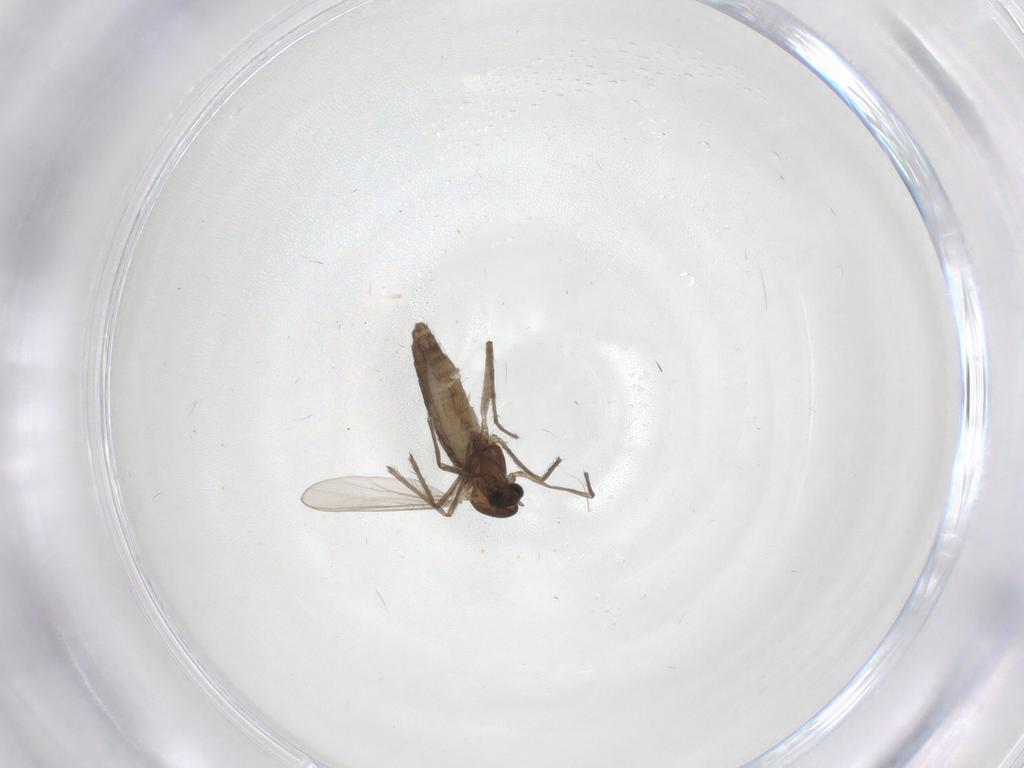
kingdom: Animalia
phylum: Arthropoda
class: Insecta
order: Diptera
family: Chironomidae
